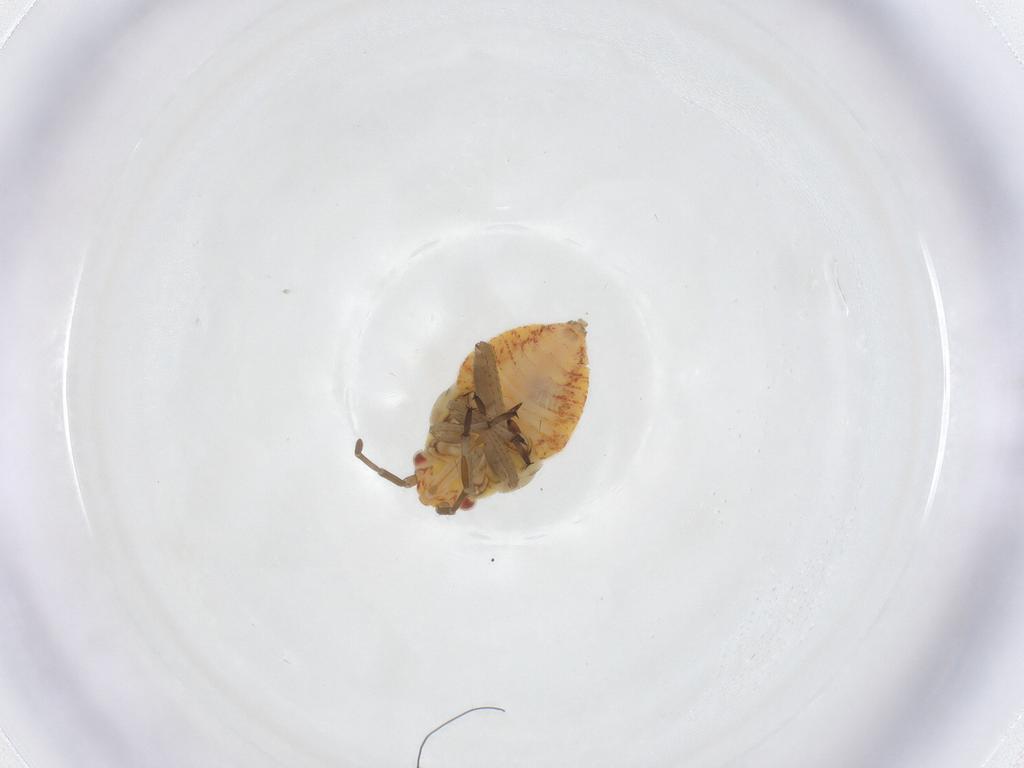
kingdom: Animalia
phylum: Arthropoda
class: Insecta
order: Hemiptera
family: Miridae
